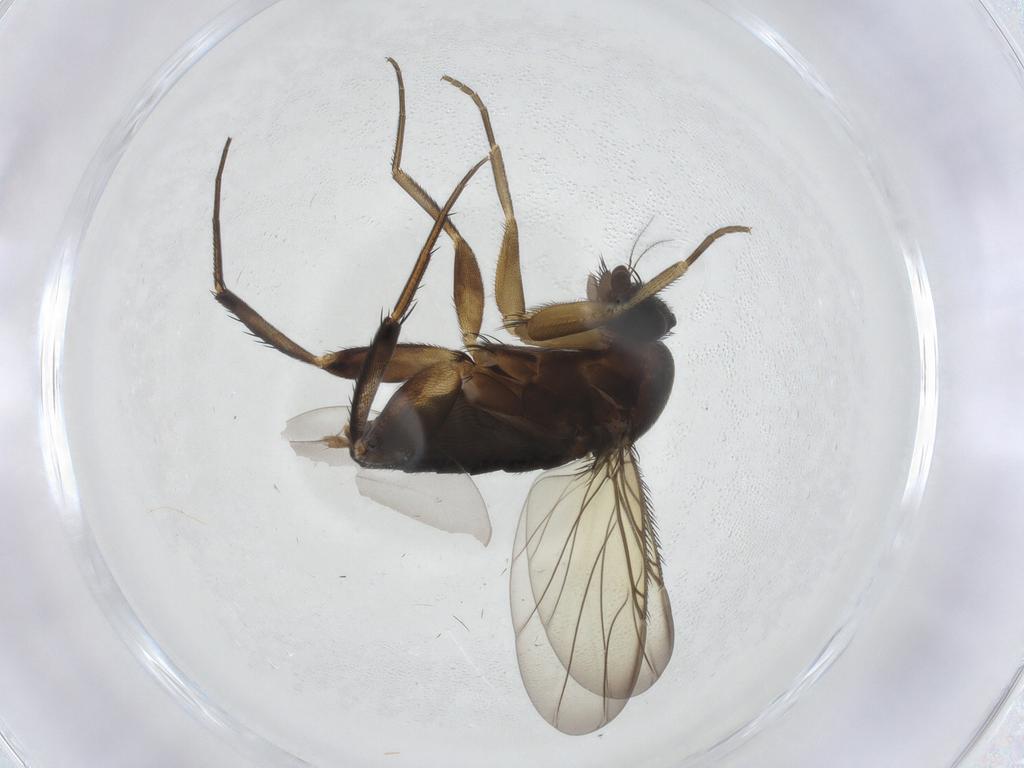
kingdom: Animalia
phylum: Arthropoda
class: Insecta
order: Diptera
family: Phoridae
